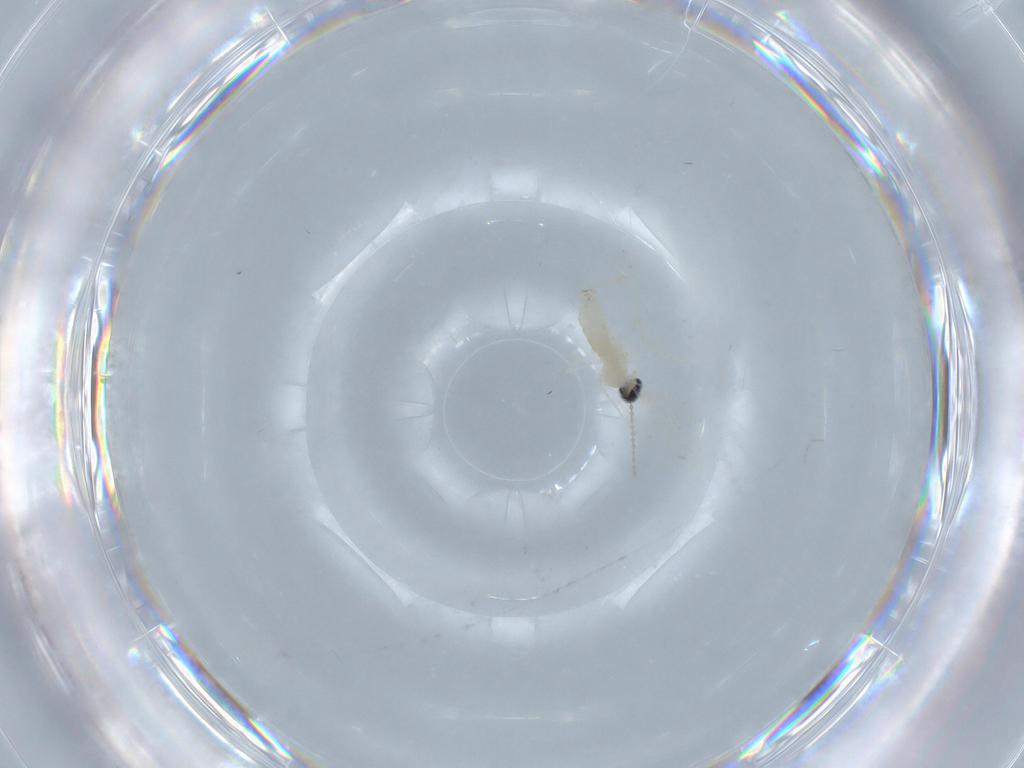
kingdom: Animalia
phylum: Arthropoda
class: Insecta
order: Diptera
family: Cecidomyiidae
